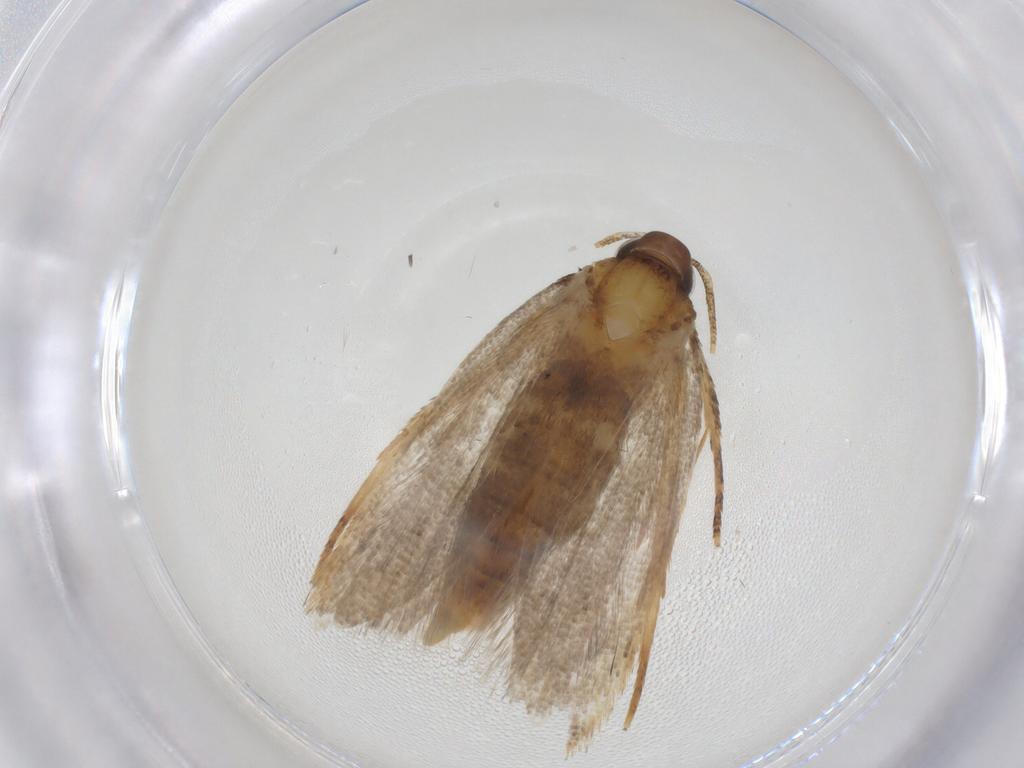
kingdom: Animalia
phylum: Arthropoda
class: Insecta
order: Lepidoptera
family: Oecophoridae
